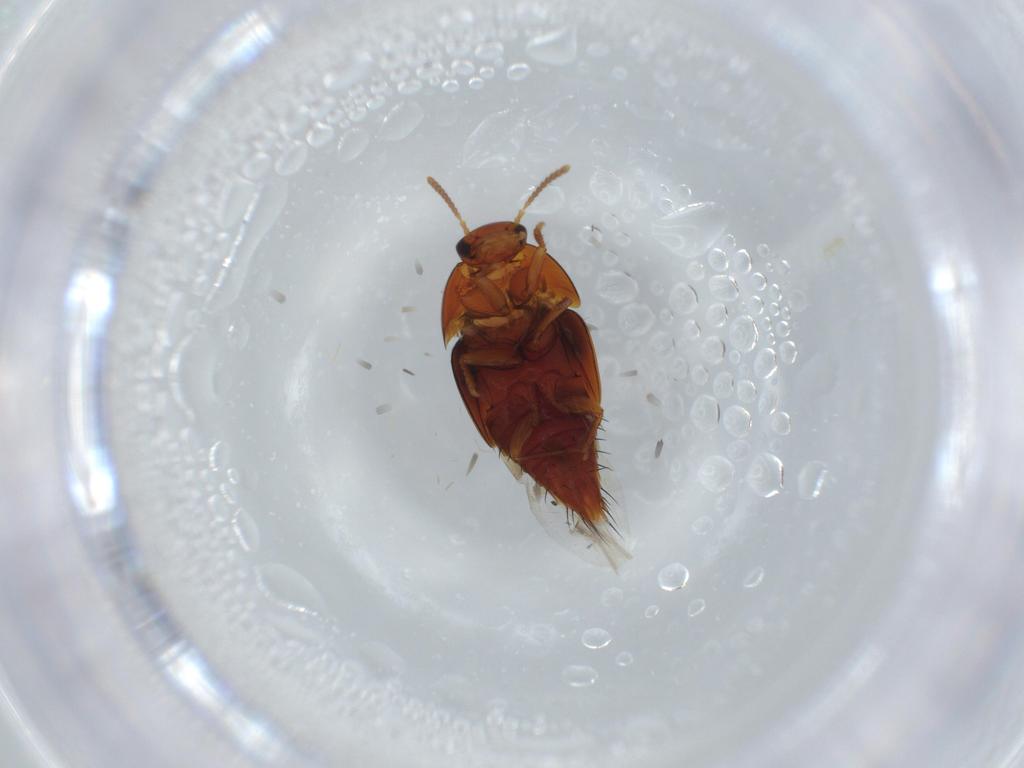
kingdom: Animalia
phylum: Arthropoda
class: Insecta
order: Coleoptera
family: Staphylinidae
